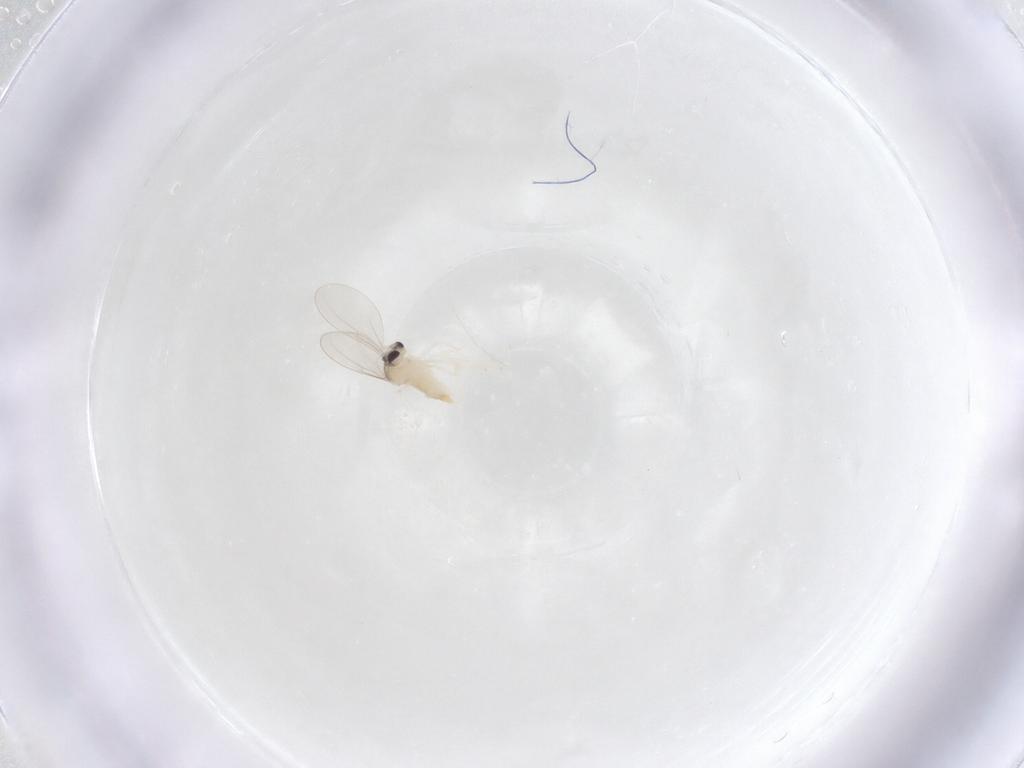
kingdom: Animalia
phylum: Arthropoda
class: Insecta
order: Diptera
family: Cecidomyiidae
